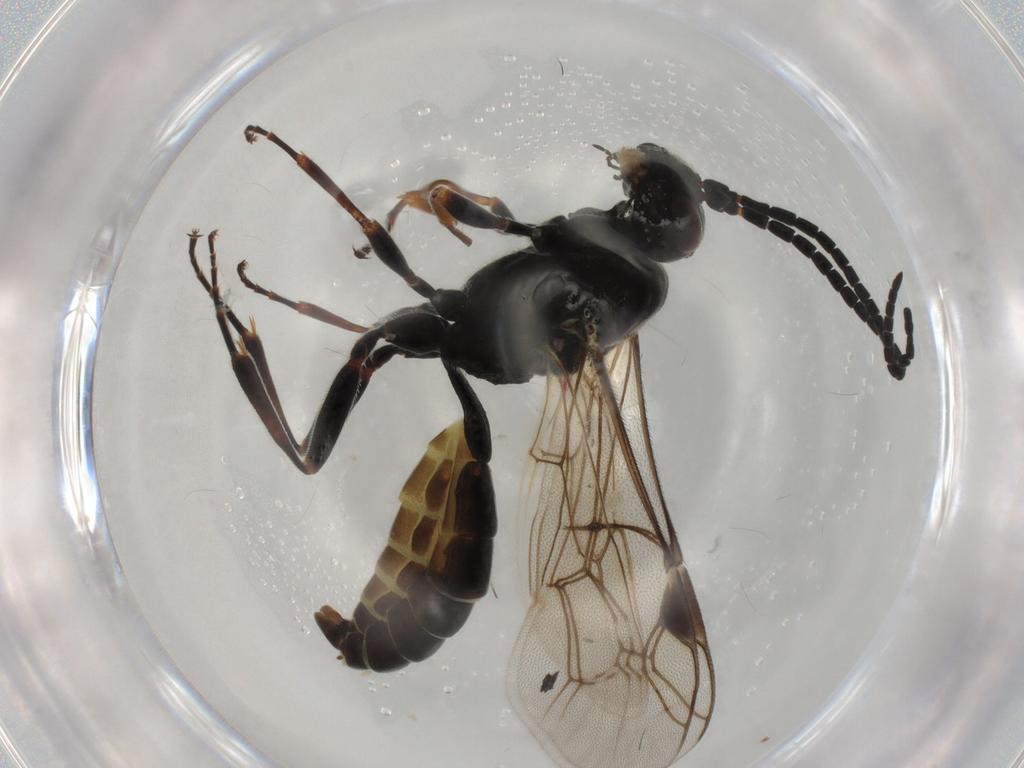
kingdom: Animalia
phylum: Arthropoda
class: Insecta
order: Hymenoptera
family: Ichneumonidae
